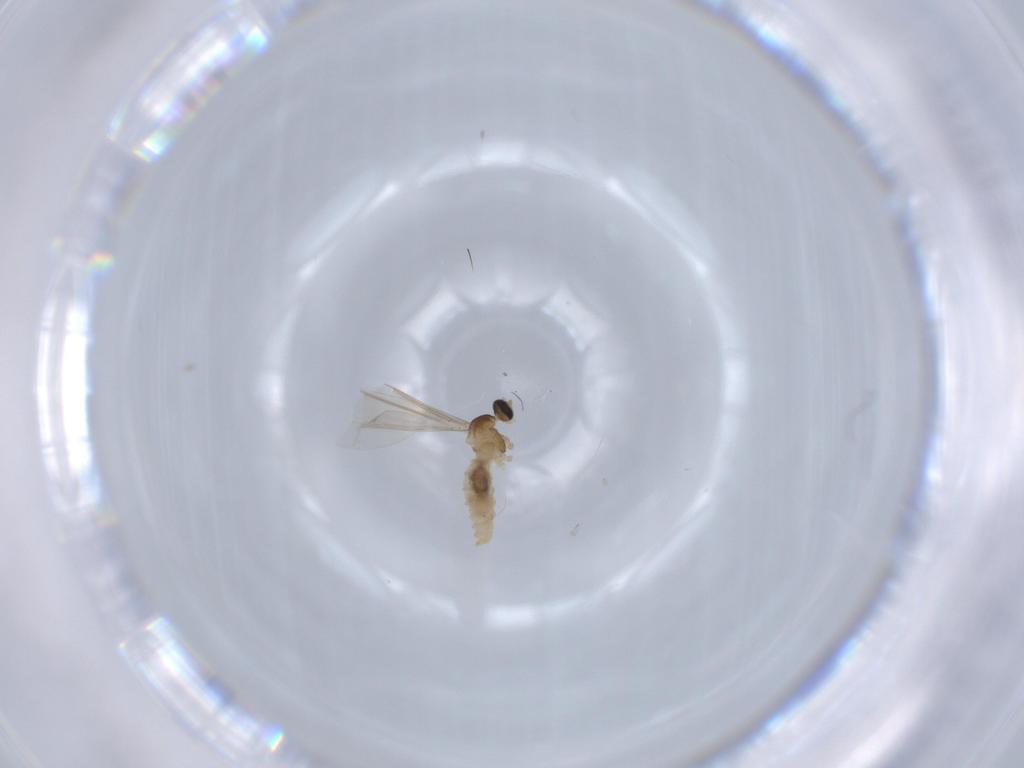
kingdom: Animalia
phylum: Arthropoda
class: Insecta
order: Diptera
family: Cecidomyiidae
